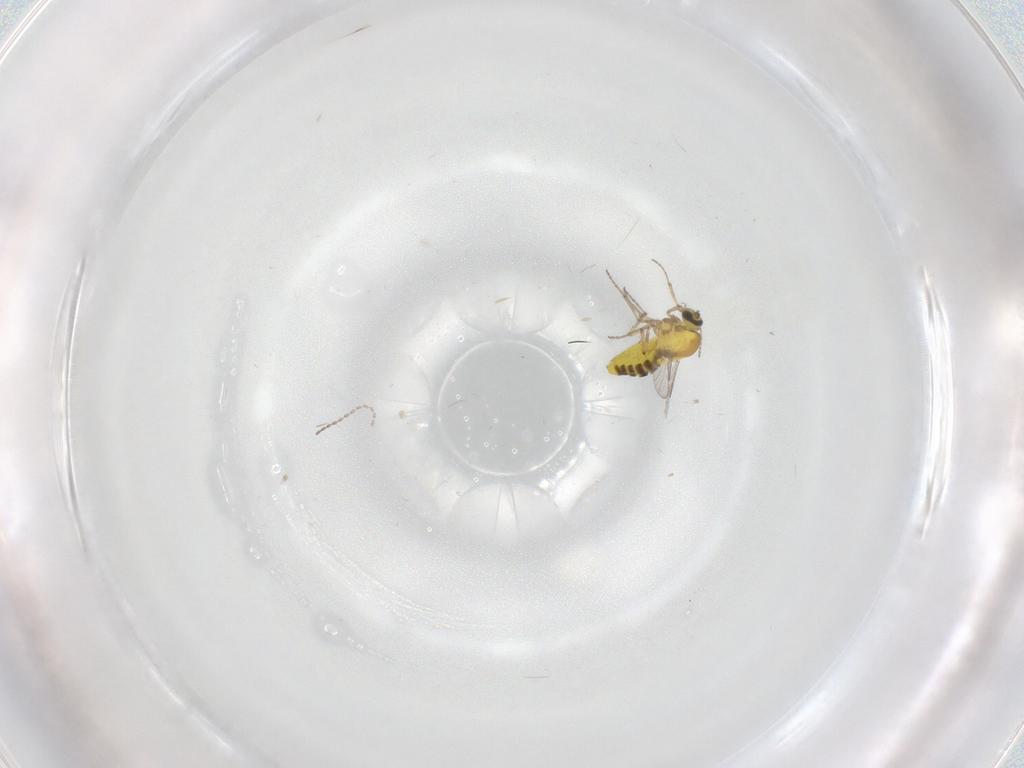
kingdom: Animalia
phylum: Arthropoda
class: Insecta
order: Diptera
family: Ceratopogonidae
